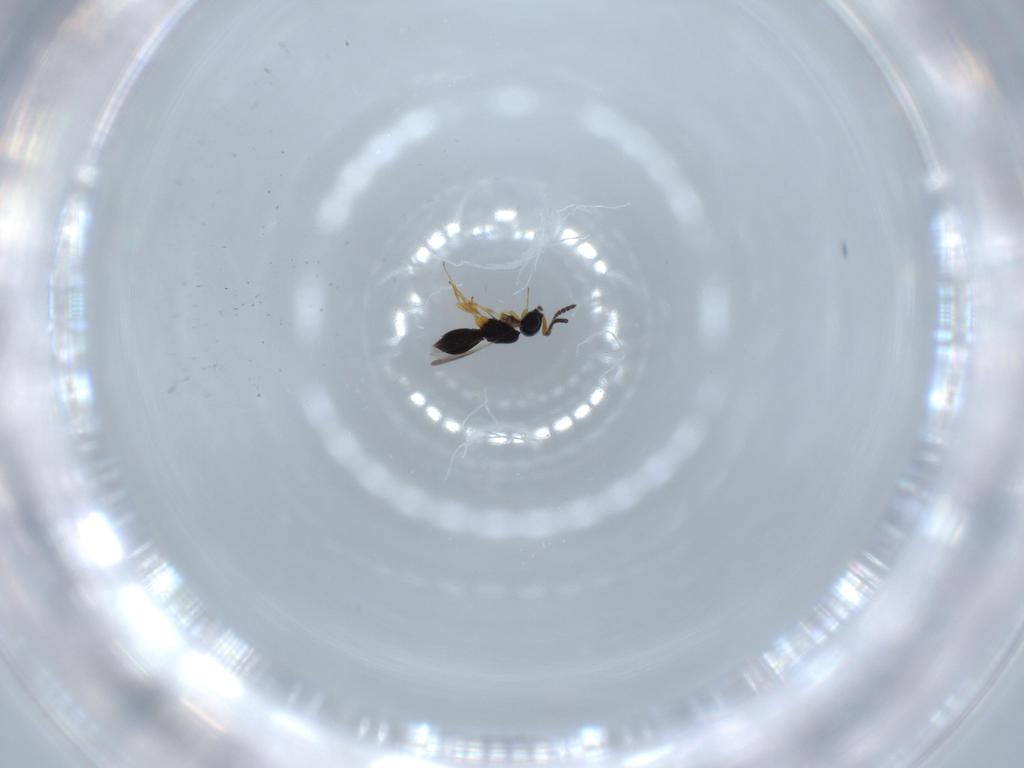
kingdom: Animalia
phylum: Arthropoda
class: Insecta
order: Hymenoptera
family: Scelionidae
